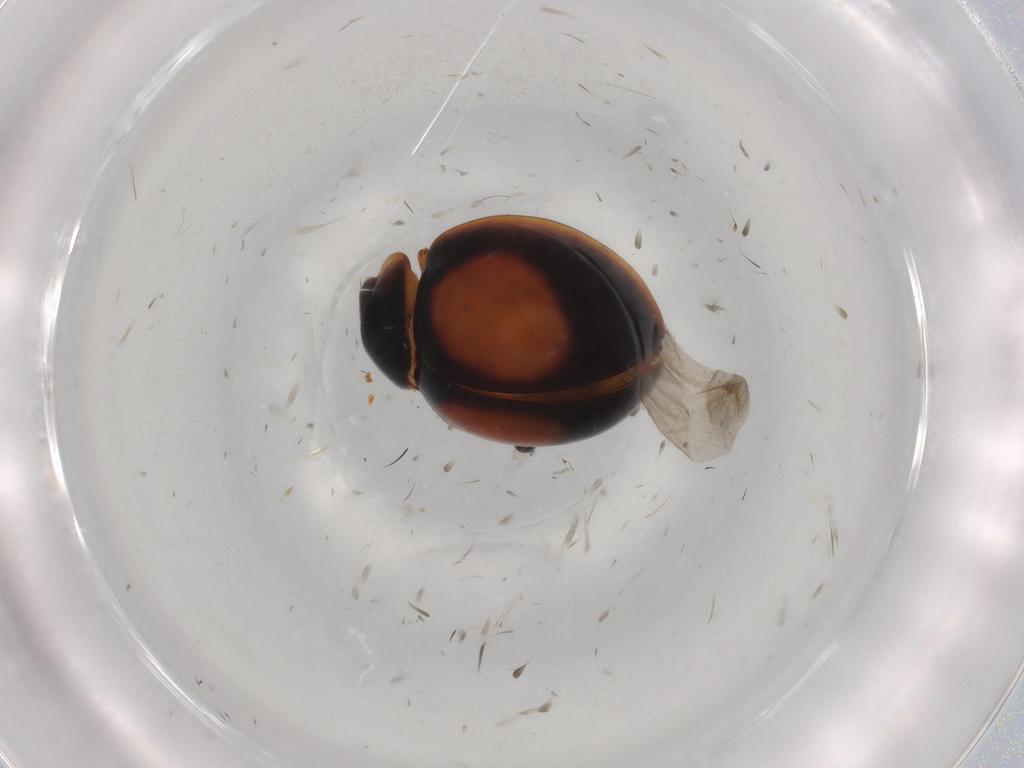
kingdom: Animalia
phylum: Arthropoda
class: Insecta
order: Coleoptera
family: Coccinellidae
